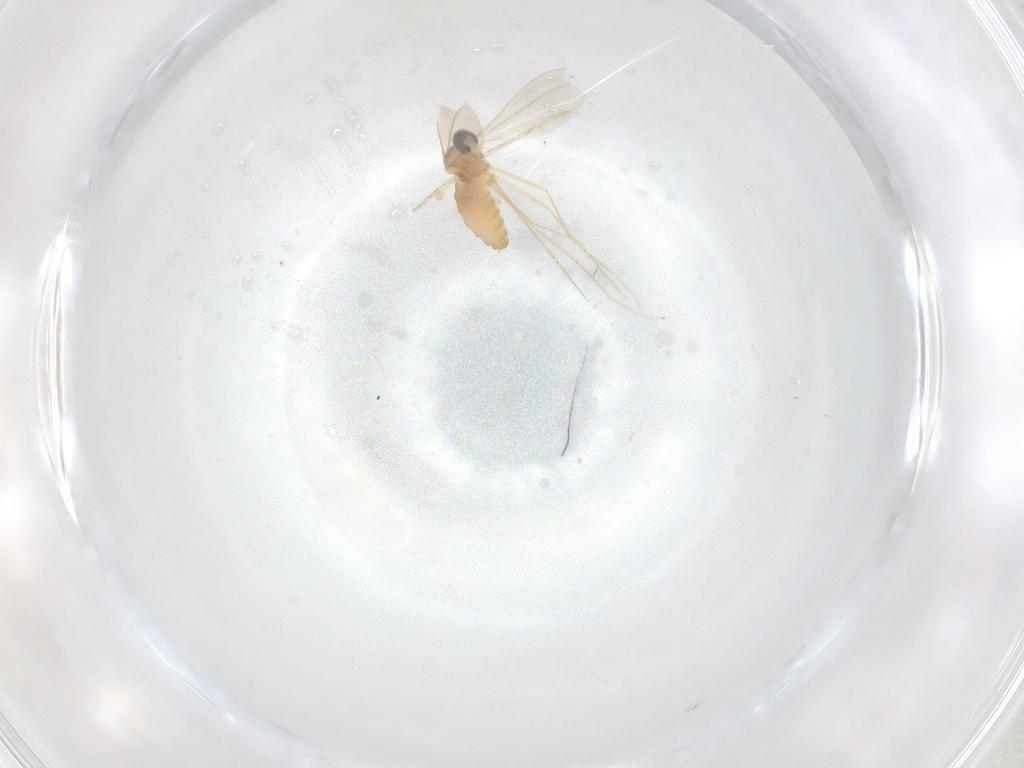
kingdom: Animalia
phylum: Arthropoda
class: Insecta
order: Diptera
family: Cecidomyiidae
